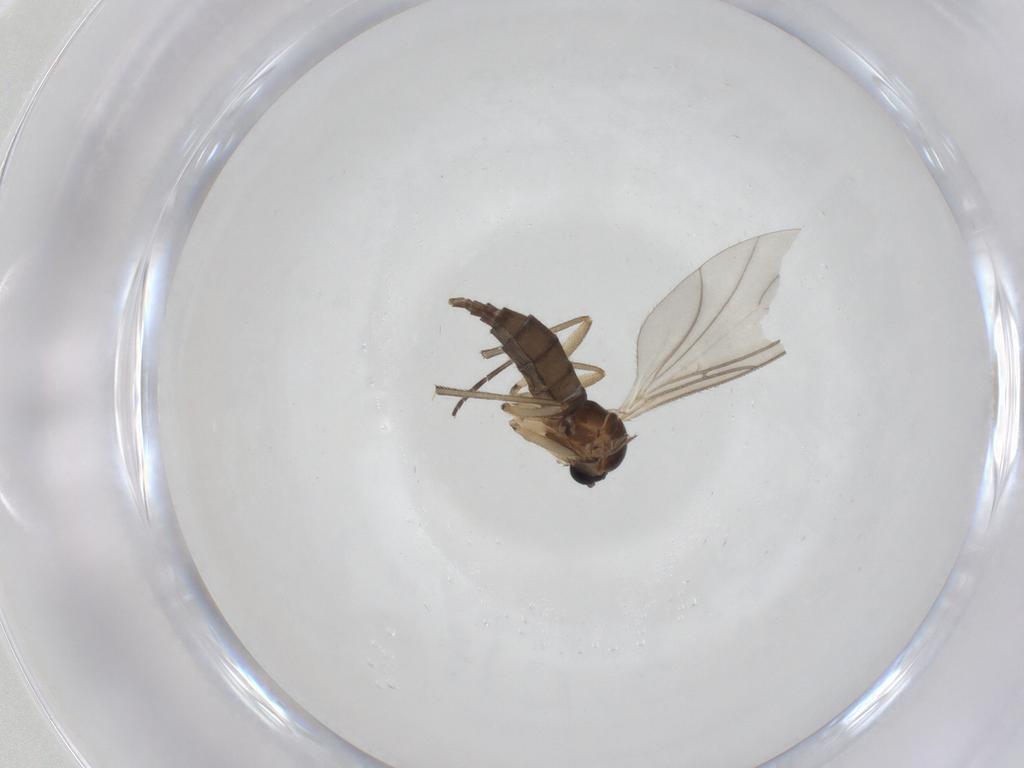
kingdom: Animalia
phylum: Arthropoda
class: Insecta
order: Diptera
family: Sciaridae
